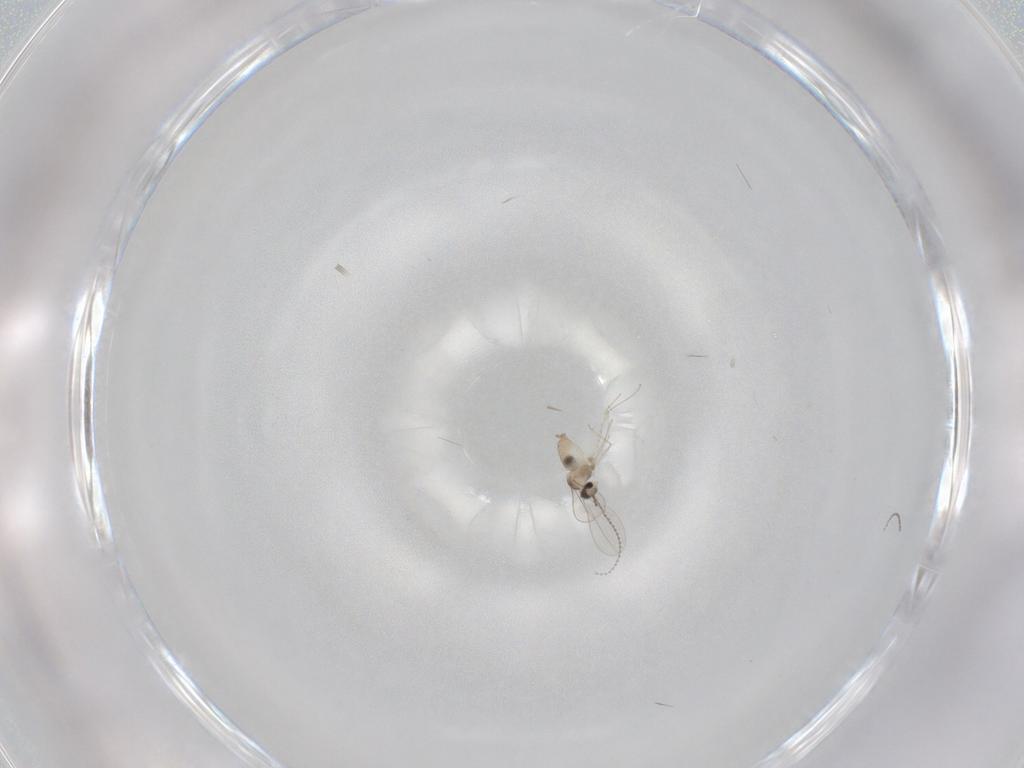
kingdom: Animalia
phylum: Arthropoda
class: Insecta
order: Diptera
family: Cecidomyiidae
